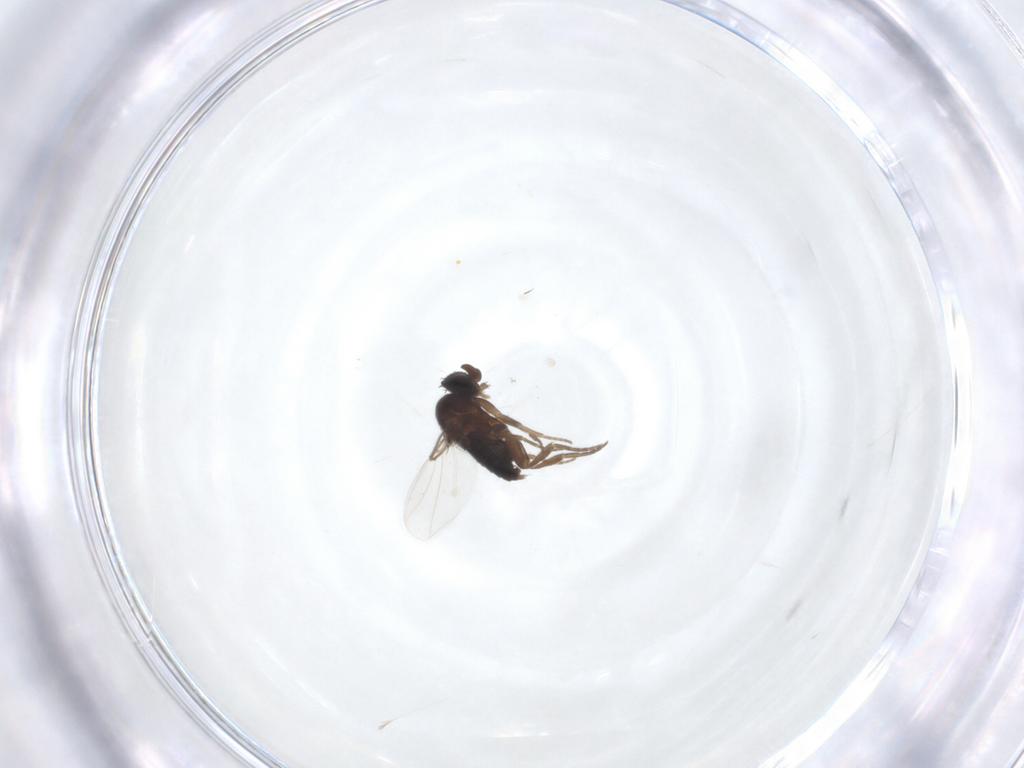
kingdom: Animalia
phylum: Arthropoda
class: Insecta
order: Diptera
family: Phoridae
